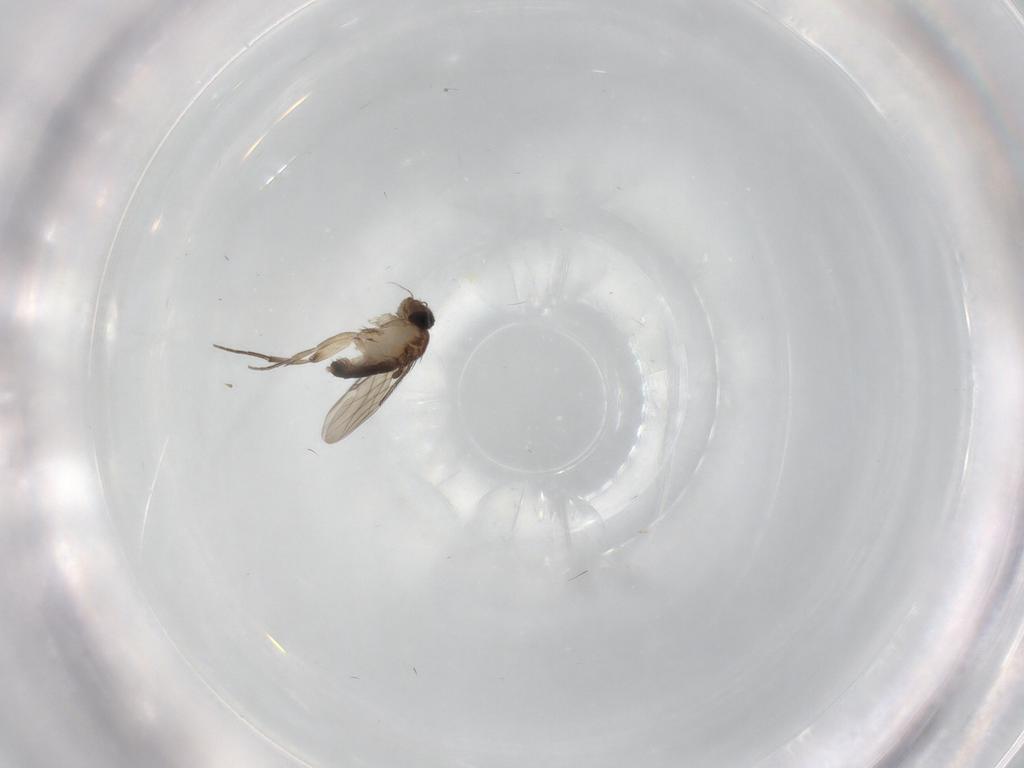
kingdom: Animalia
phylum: Arthropoda
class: Insecta
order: Diptera
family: Phoridae
